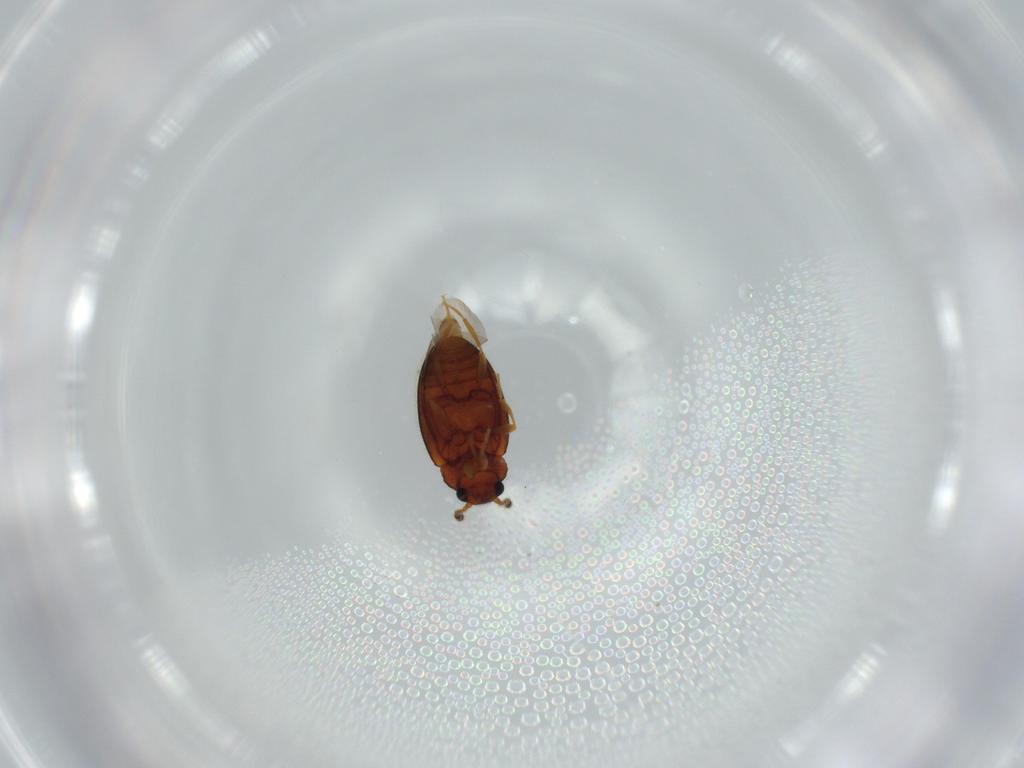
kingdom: Animalia
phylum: Arthropoda
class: Insecta
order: Coleoptera
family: Erotylidae
